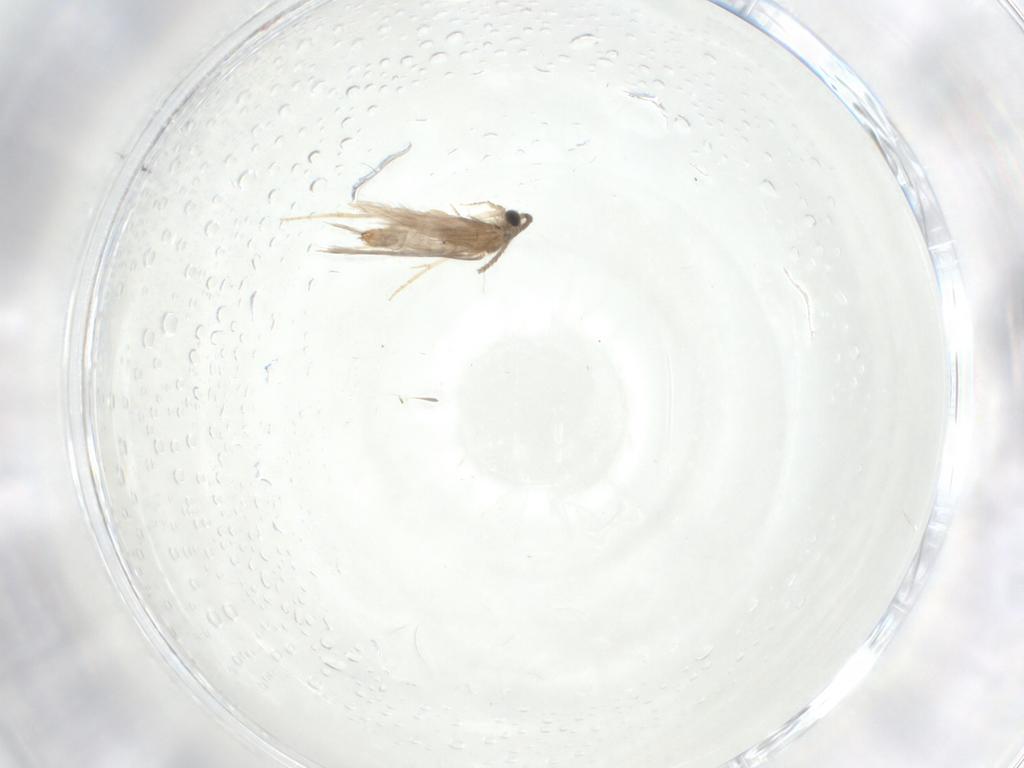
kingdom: Animalia
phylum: Arthropoda
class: Insecta
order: Trichoptera
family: Hydroptilidae
